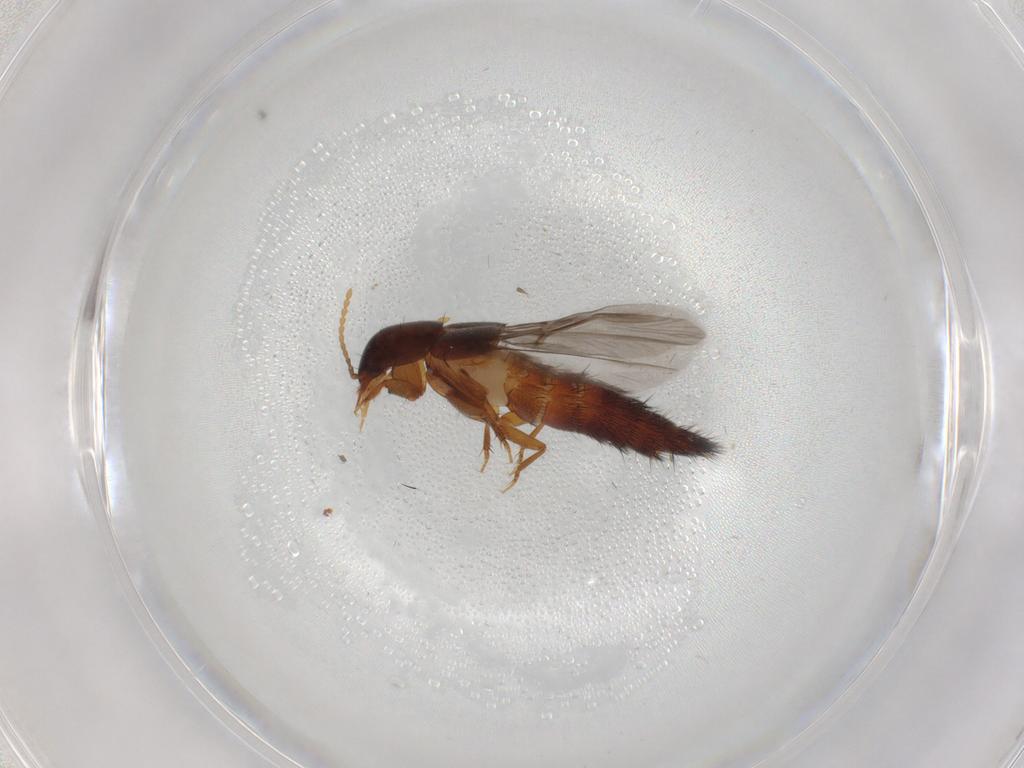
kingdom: Animalia
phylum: Arthropoda
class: Insecta
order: Coleoptera
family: Staphylinidae
